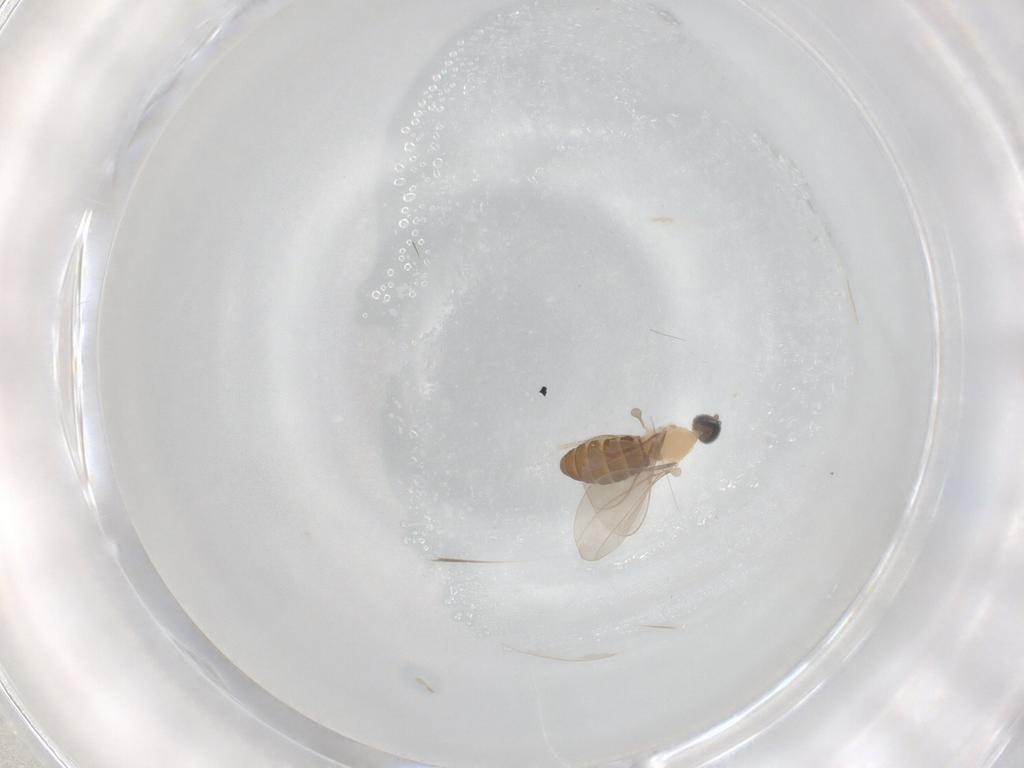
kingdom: Animalia
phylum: Arthropoda
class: Insecta
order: Diptera
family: Cecidomyiidae
